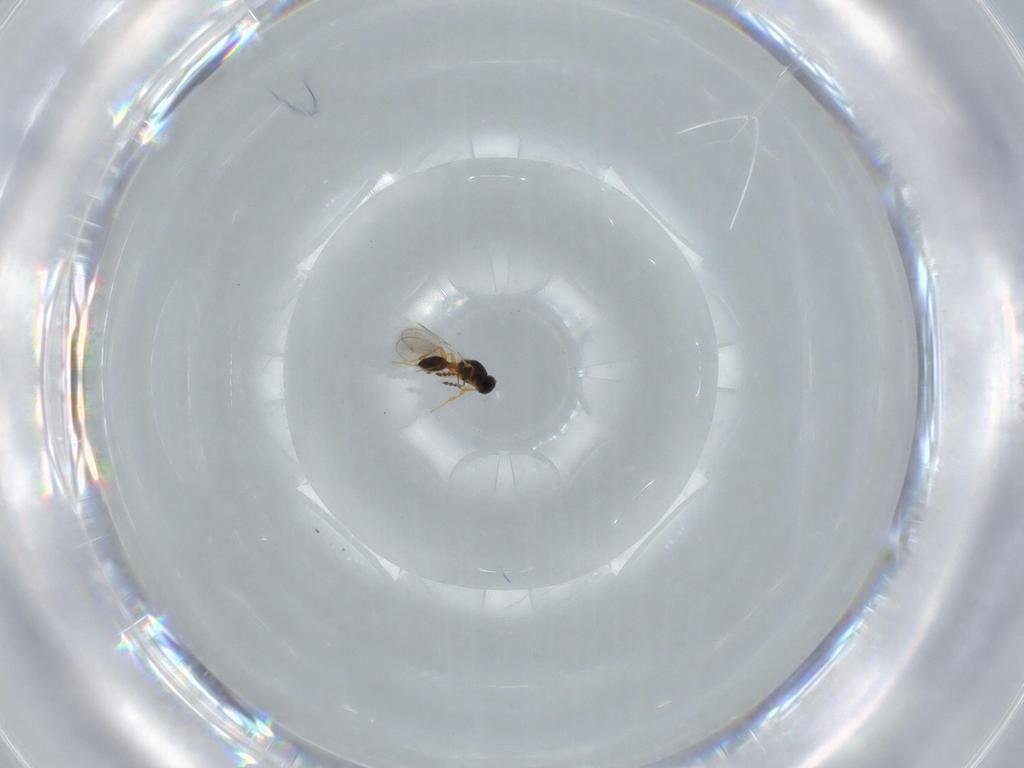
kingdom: Animalia
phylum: Arthropoda
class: Insecta
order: Hymenoptera
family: Platygastridae
